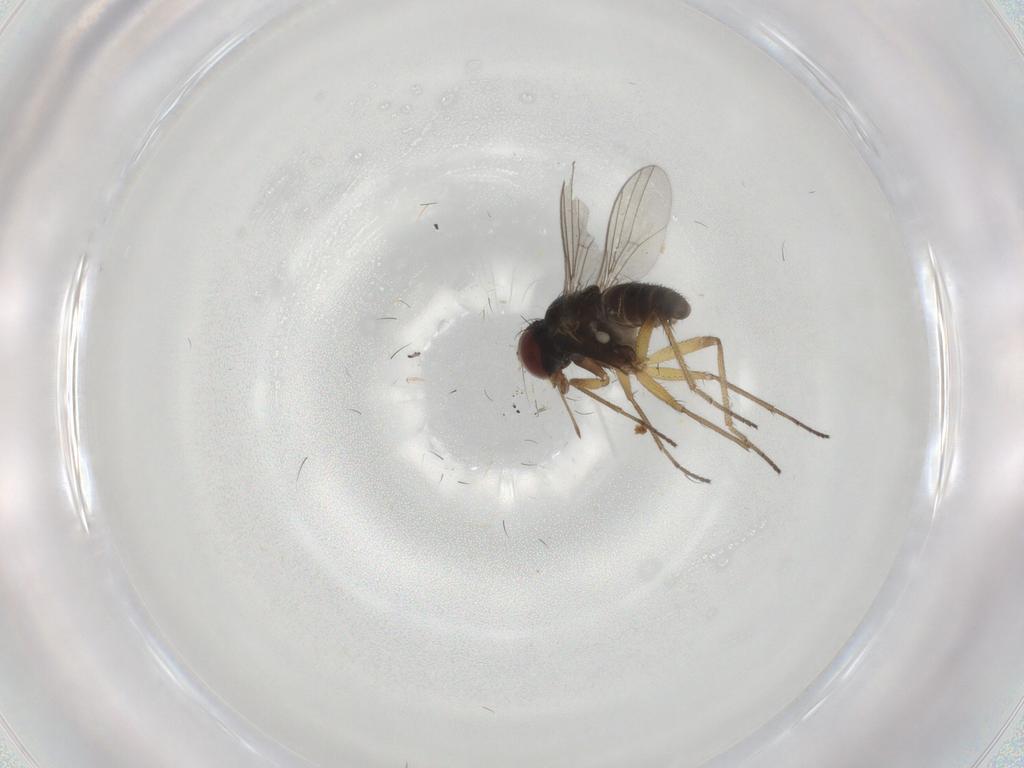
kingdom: Animalia
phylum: Arthropoda
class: Insecta
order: Diptera
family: Dolichopodidae
